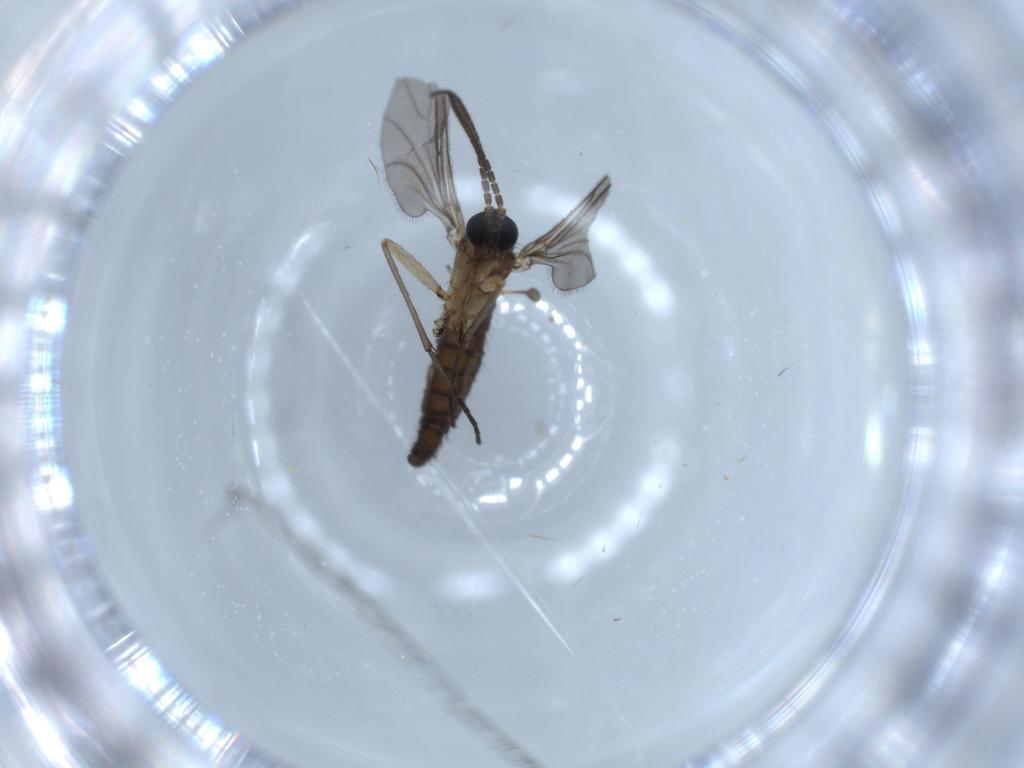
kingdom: Animalia
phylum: Arthropoda
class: Insecta
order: Diptera
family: Sciaridae
